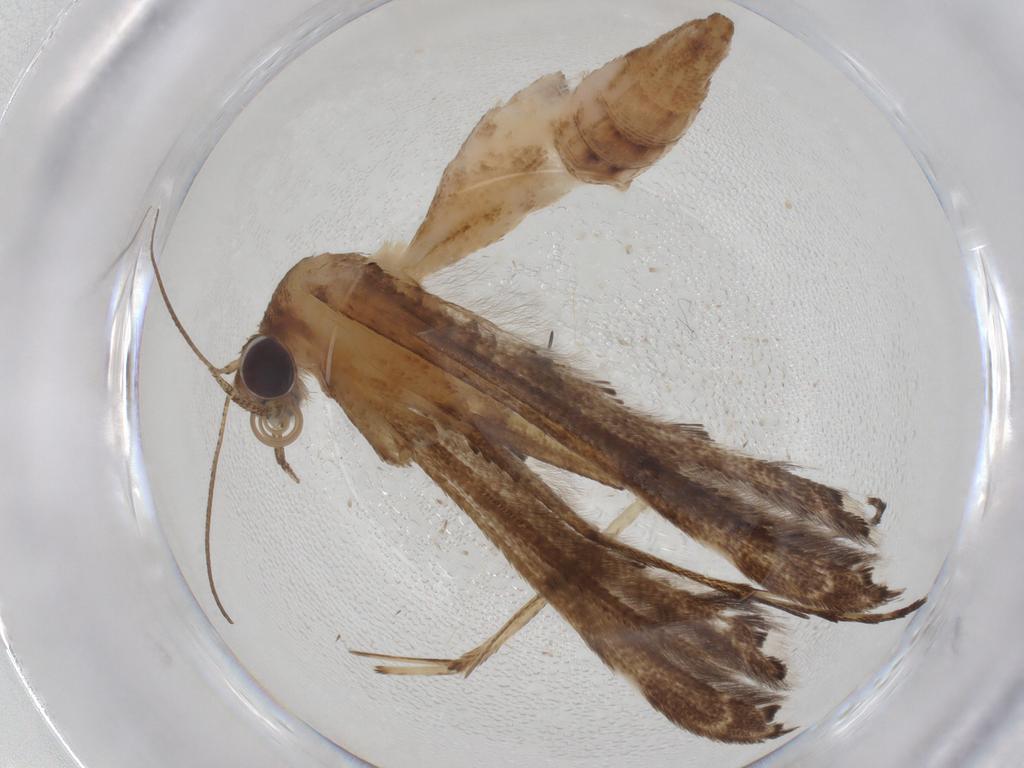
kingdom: Animalia
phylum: Arthropoda
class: Insecta
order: Lepidoptera
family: Pterophoridae
